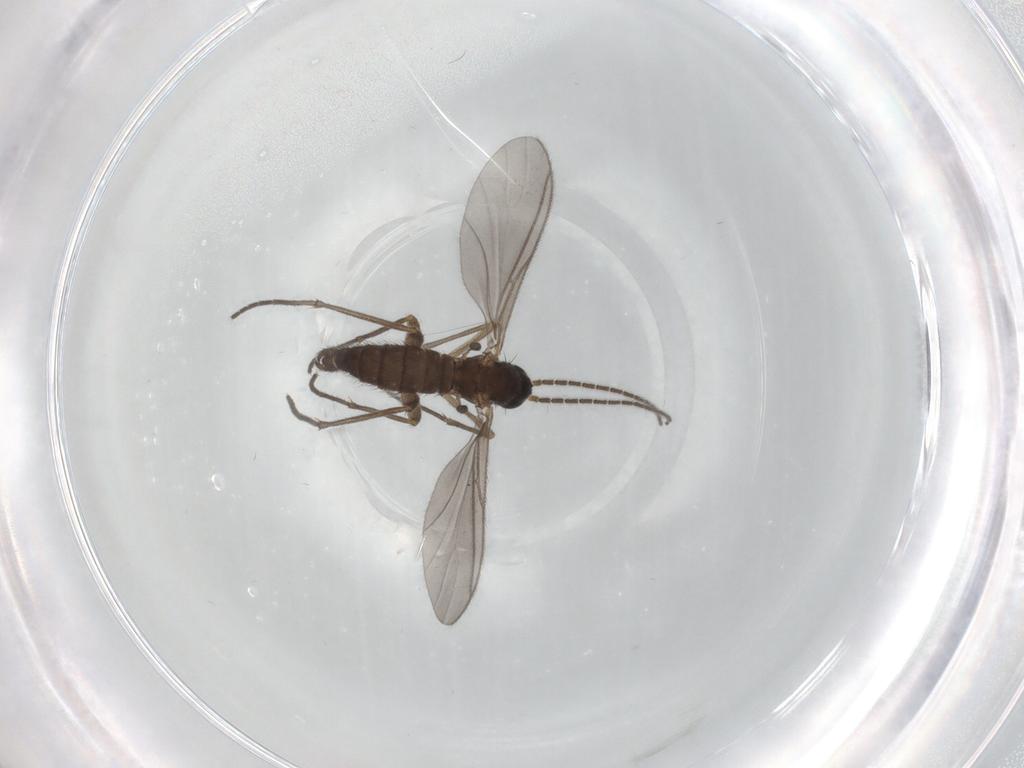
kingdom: Animalia
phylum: Arthropoda
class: Insecta
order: Diptera
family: Sciaridae
